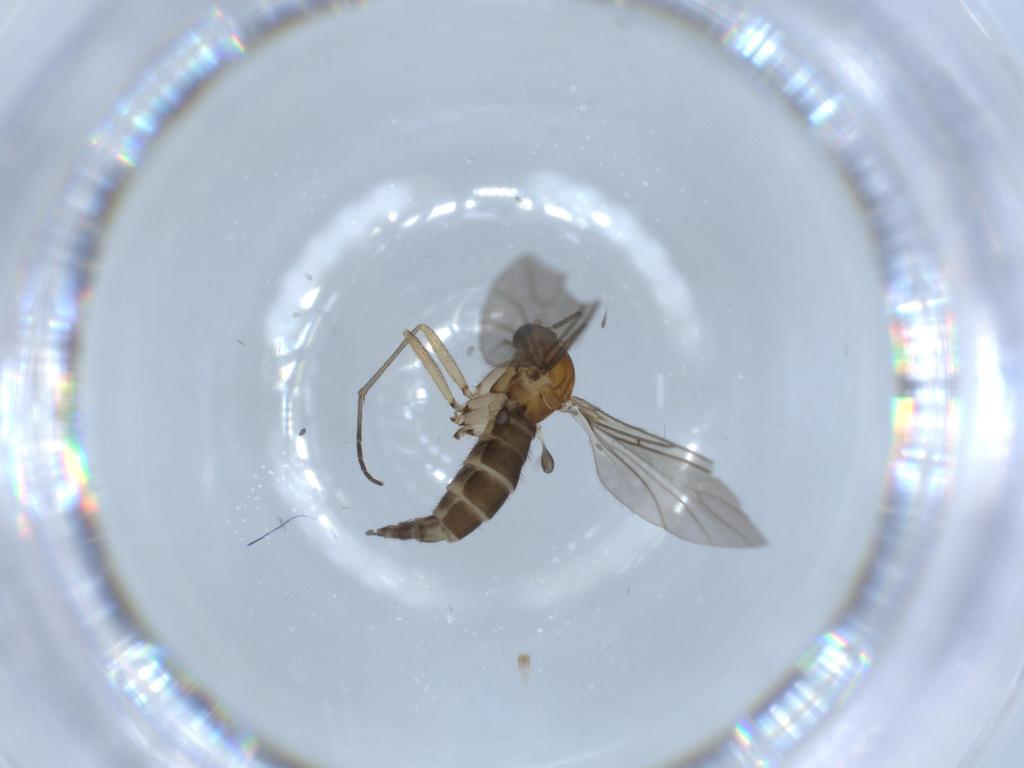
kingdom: Animalia
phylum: Arthropoda
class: Insecta
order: Diptera
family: Sciaridae
